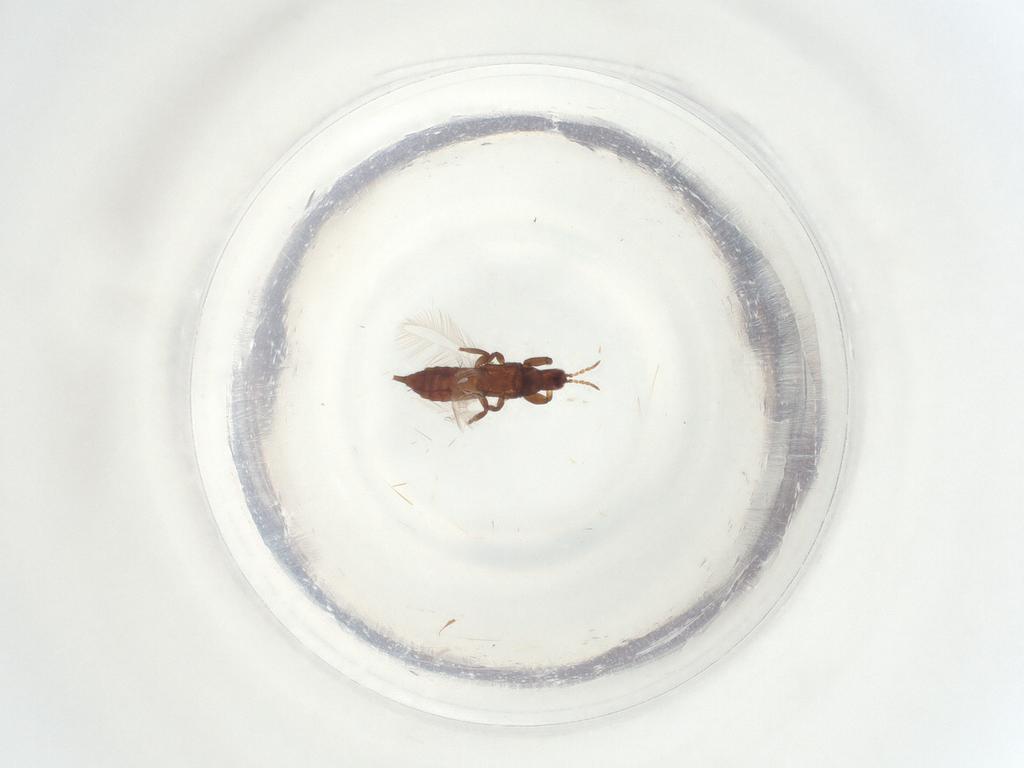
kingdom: Animalia
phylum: Arthropoda
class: Insecta
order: Thysanoptera
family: Phlaeothripidae
